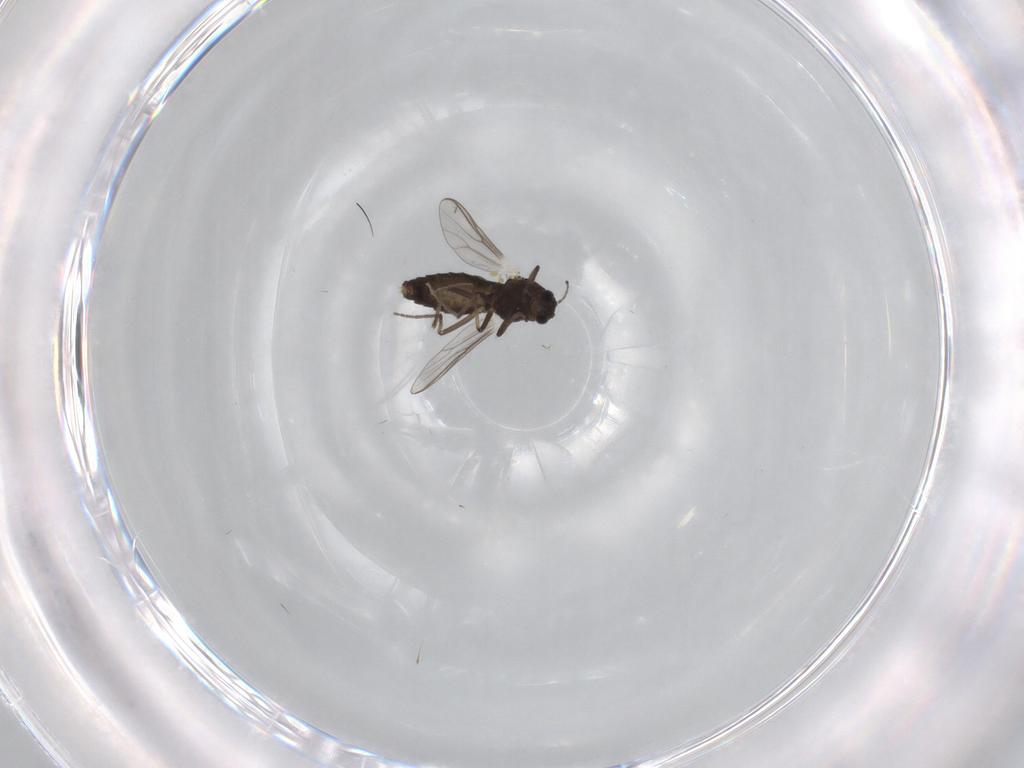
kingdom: Animalia
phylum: Arthropoda
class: Insecta
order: Diptera
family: Chironomidae
